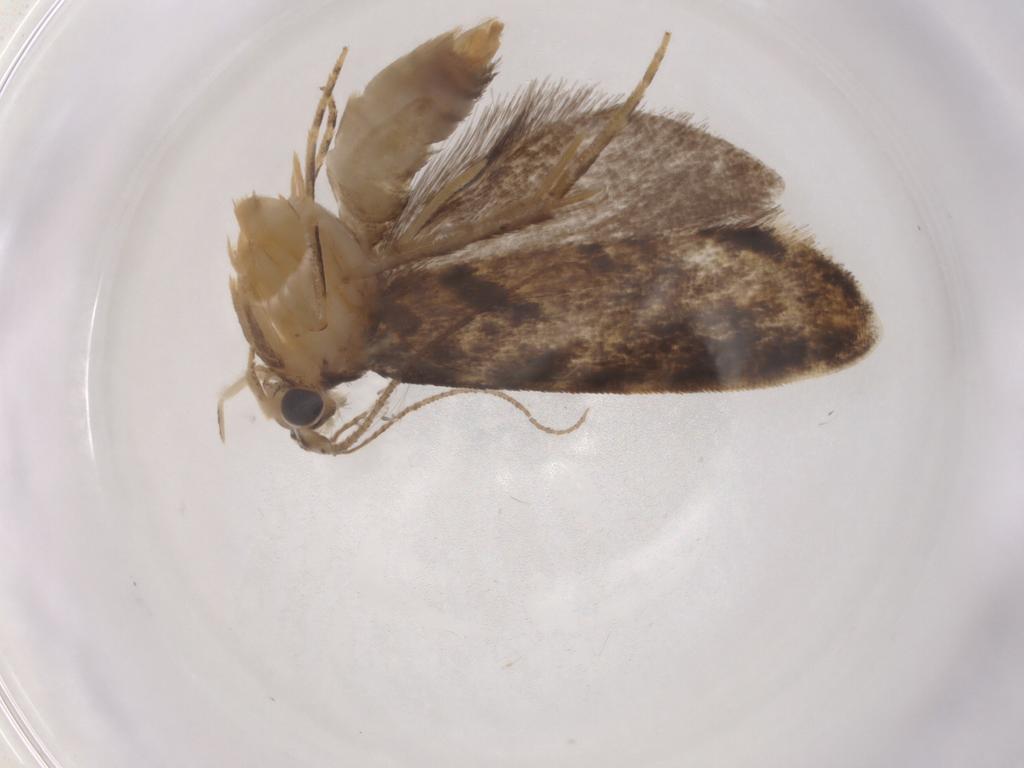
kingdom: Animalia
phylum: Arthropoda
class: Insecta
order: Lepidoptera
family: Dryadaulidae
